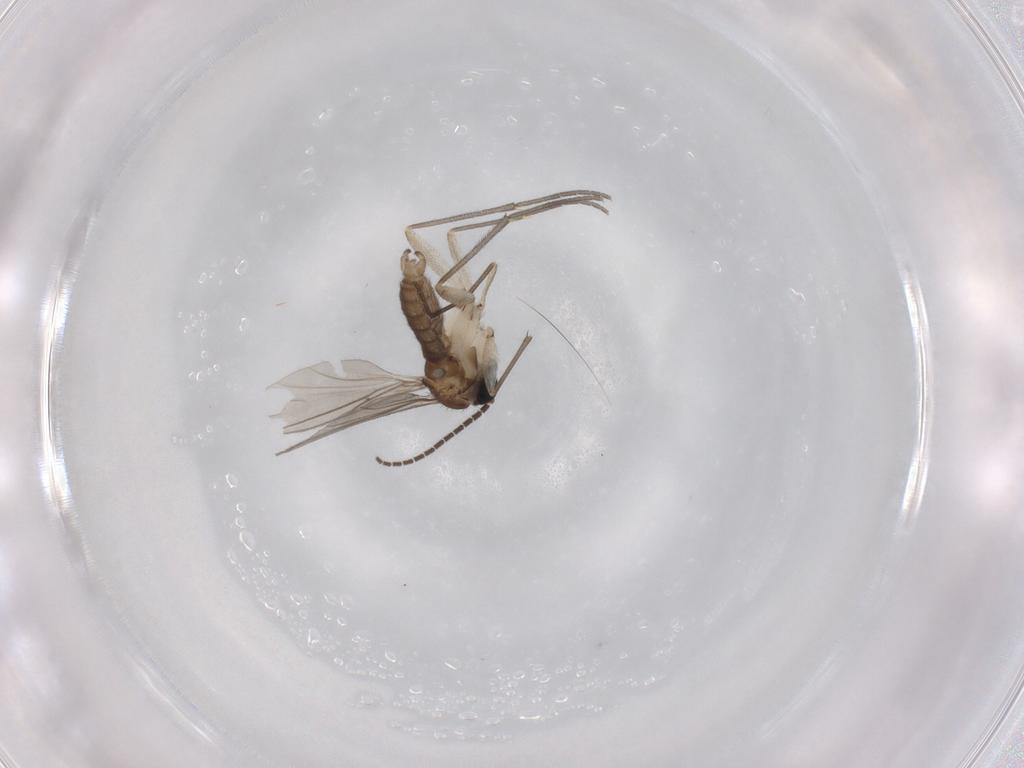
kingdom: Animalia
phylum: Arthropoda
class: Insecta
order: Diptera
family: Sciaridae
